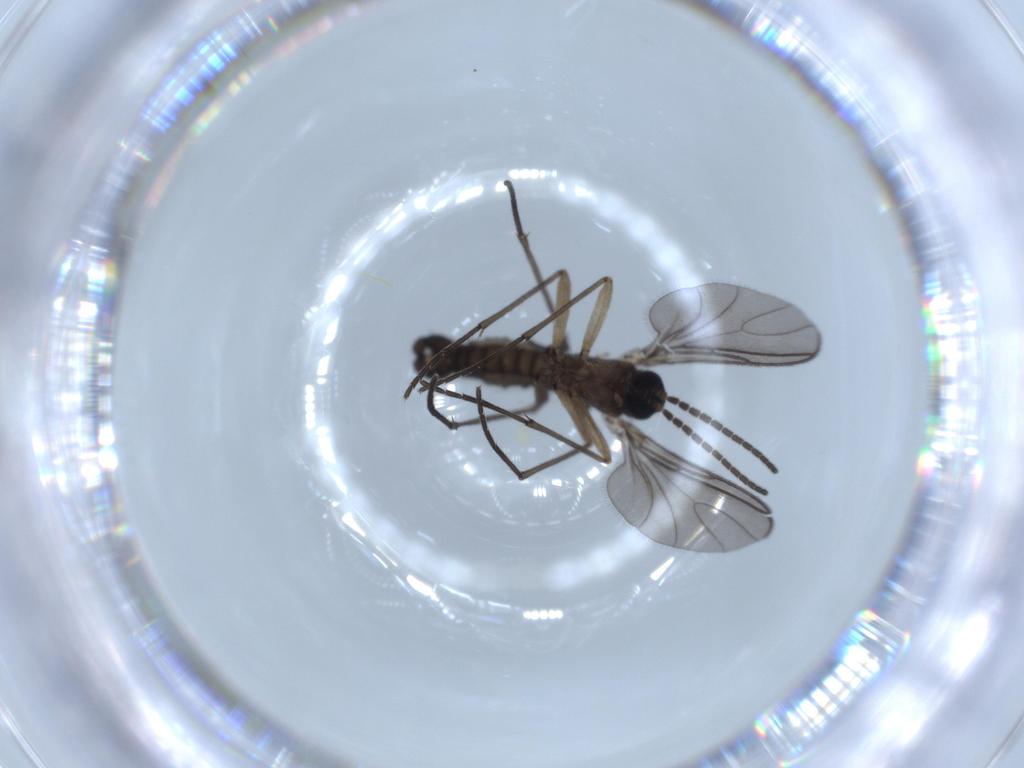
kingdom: Animalia
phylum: Arthropoda
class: Insecta
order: Diptera
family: Sciaridae
